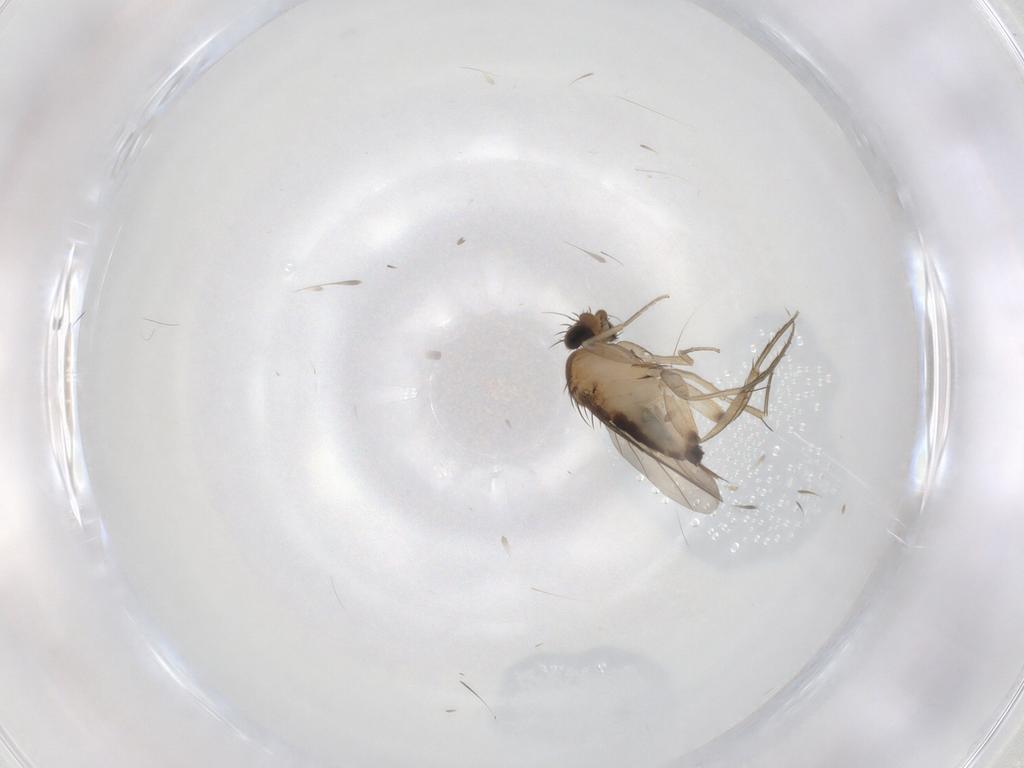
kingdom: Animalia
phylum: Arthropoda
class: Insecta
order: Diptera
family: Phoridae
